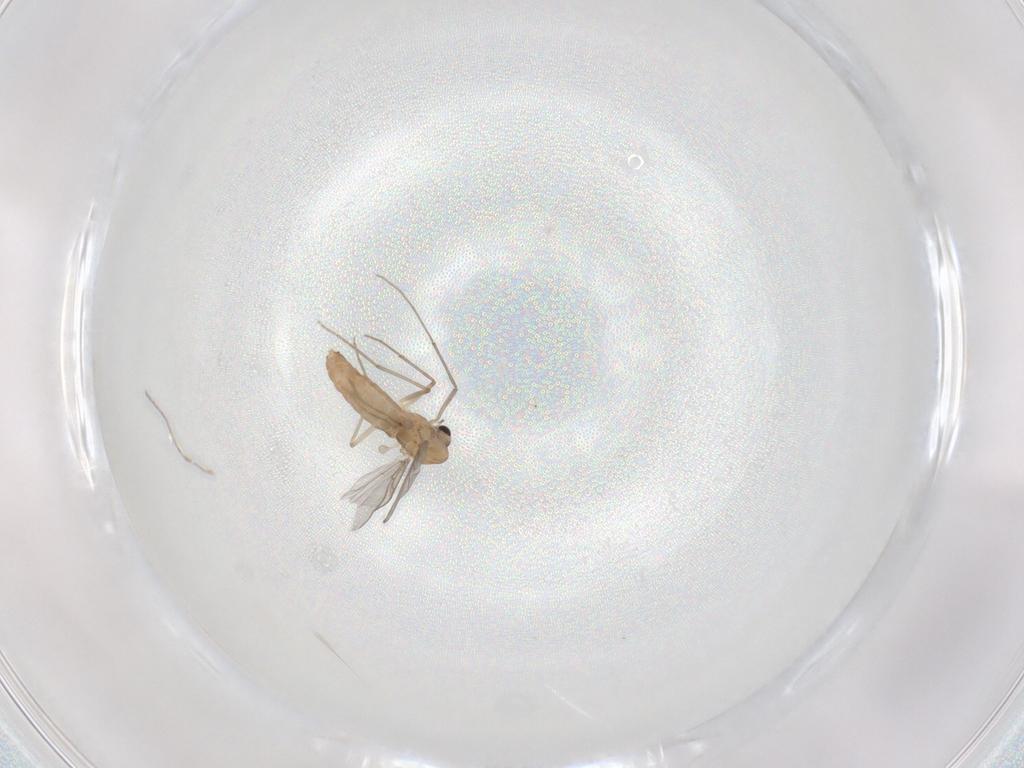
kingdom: Animalia
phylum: Arthropoda
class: Insecta
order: Diptera
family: Chironomidae
